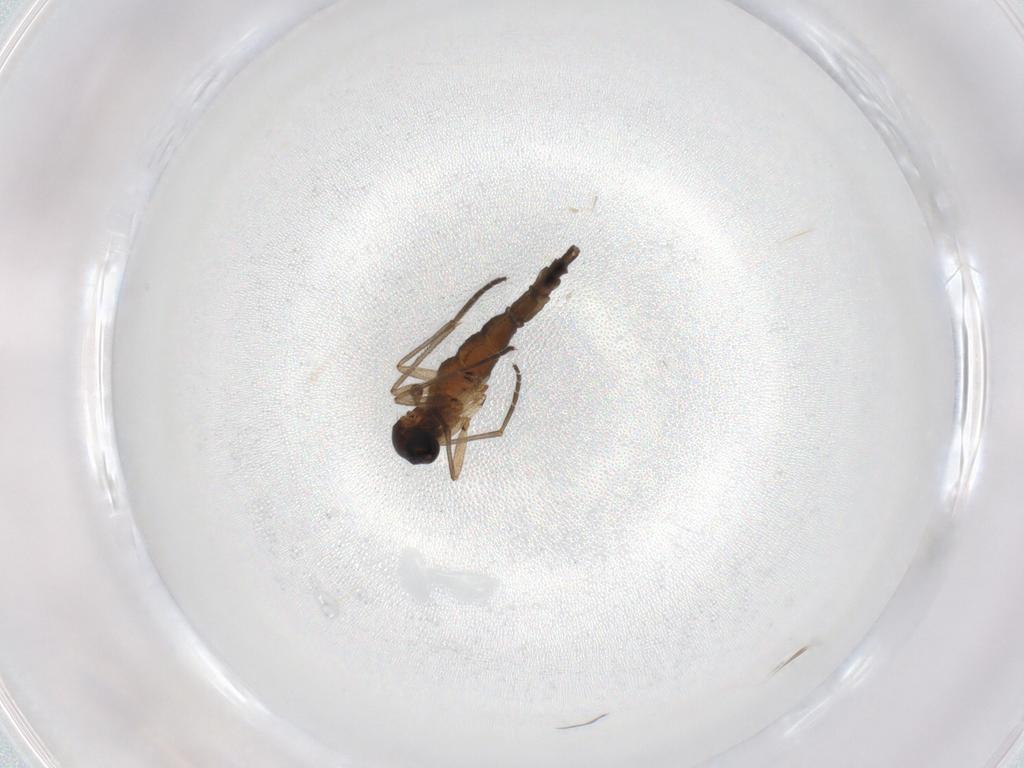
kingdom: Animalia
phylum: Arthropoda
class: Insecta
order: Diptera
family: Sciaridae
